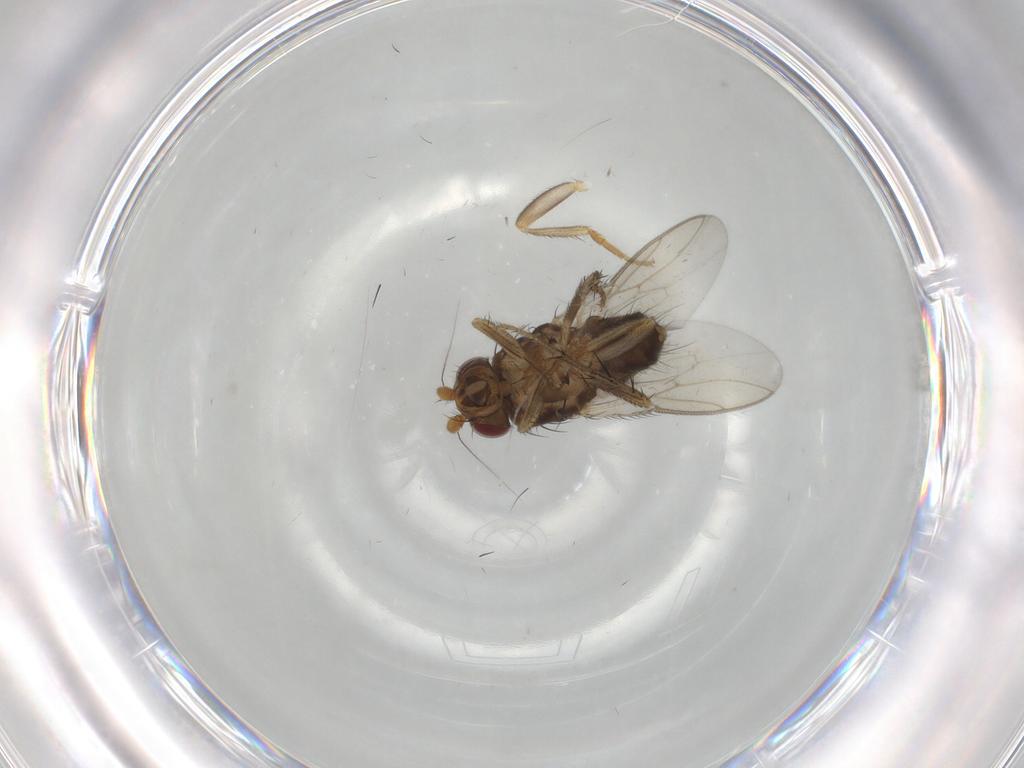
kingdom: Animalia
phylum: Arthropoda
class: Insecta
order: Diptera
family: Sphaeroceridae
